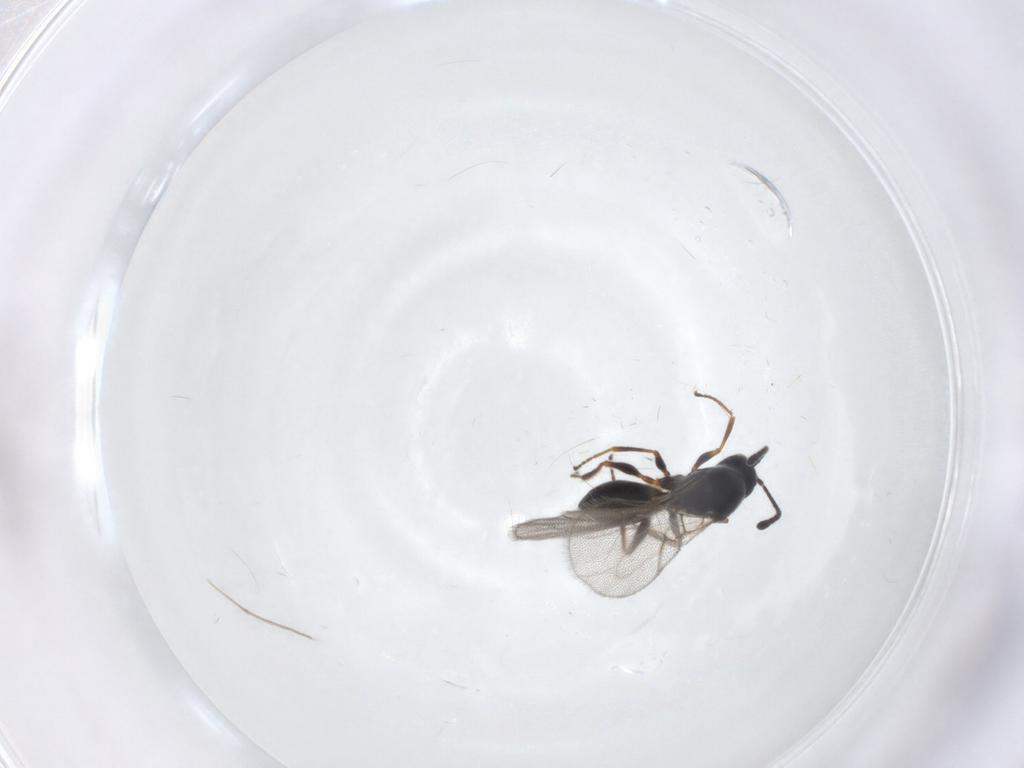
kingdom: Animalia
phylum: Arthropoda
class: Insecta
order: Hymenoptera
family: Figitidae
